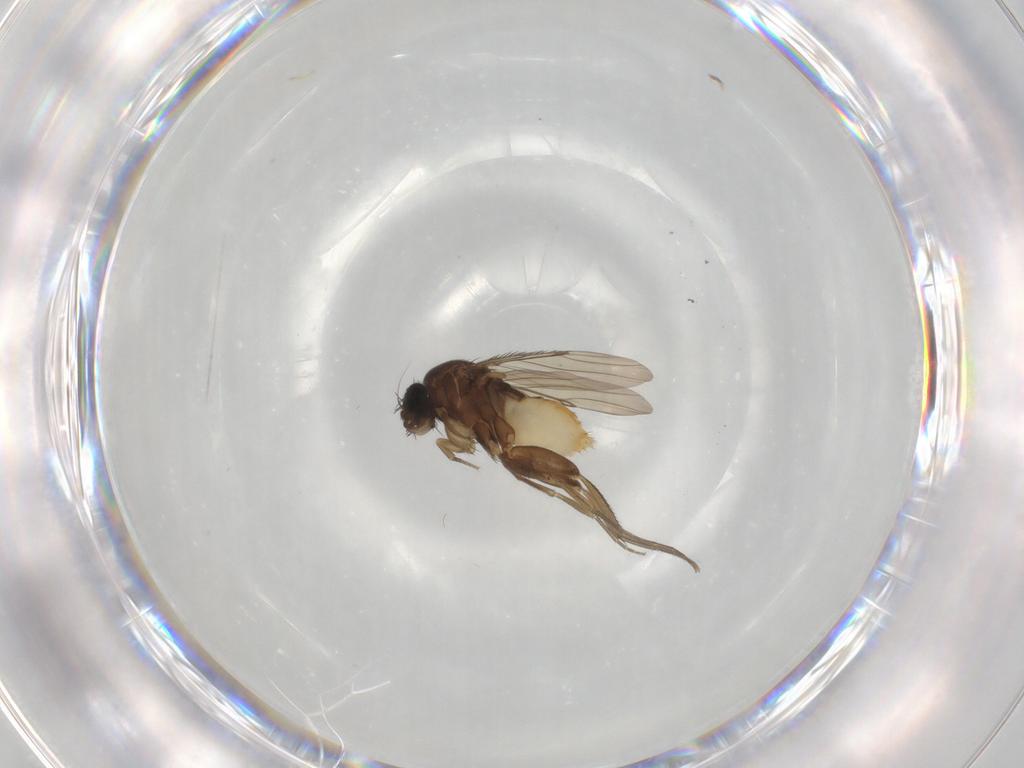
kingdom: Animalia
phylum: Arthropoda
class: Insecta
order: Diptera
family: Phoridae
